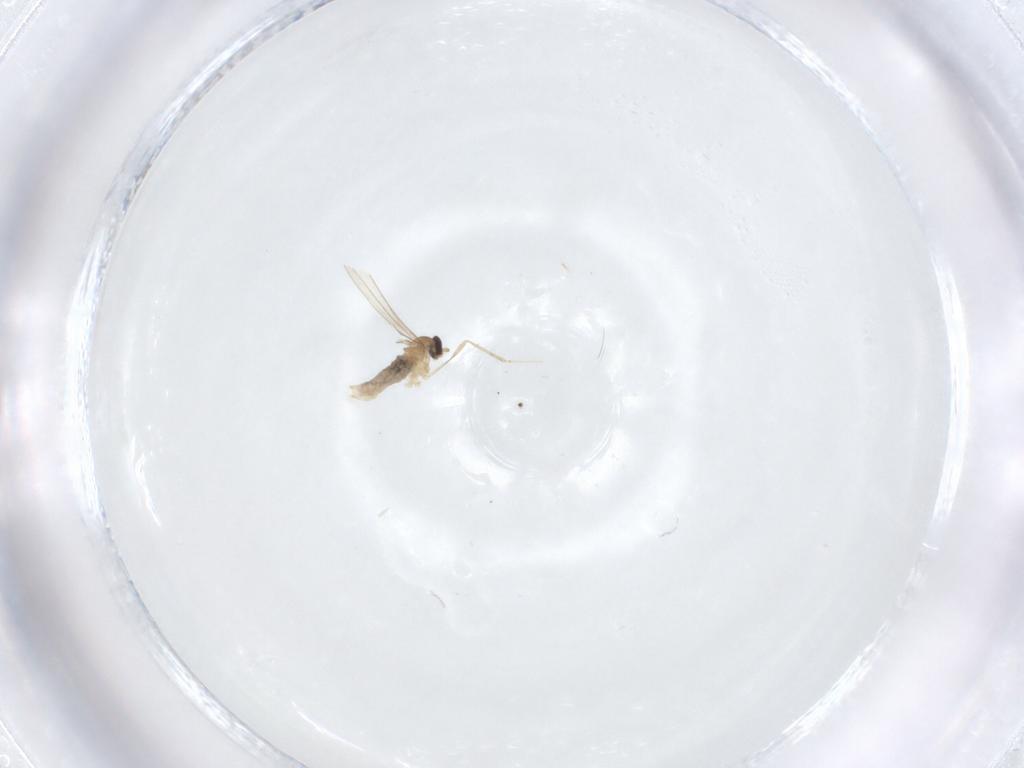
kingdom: Animalia
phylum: Arthropoda
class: Insecta
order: Diptera
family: Cecidomyiidae
